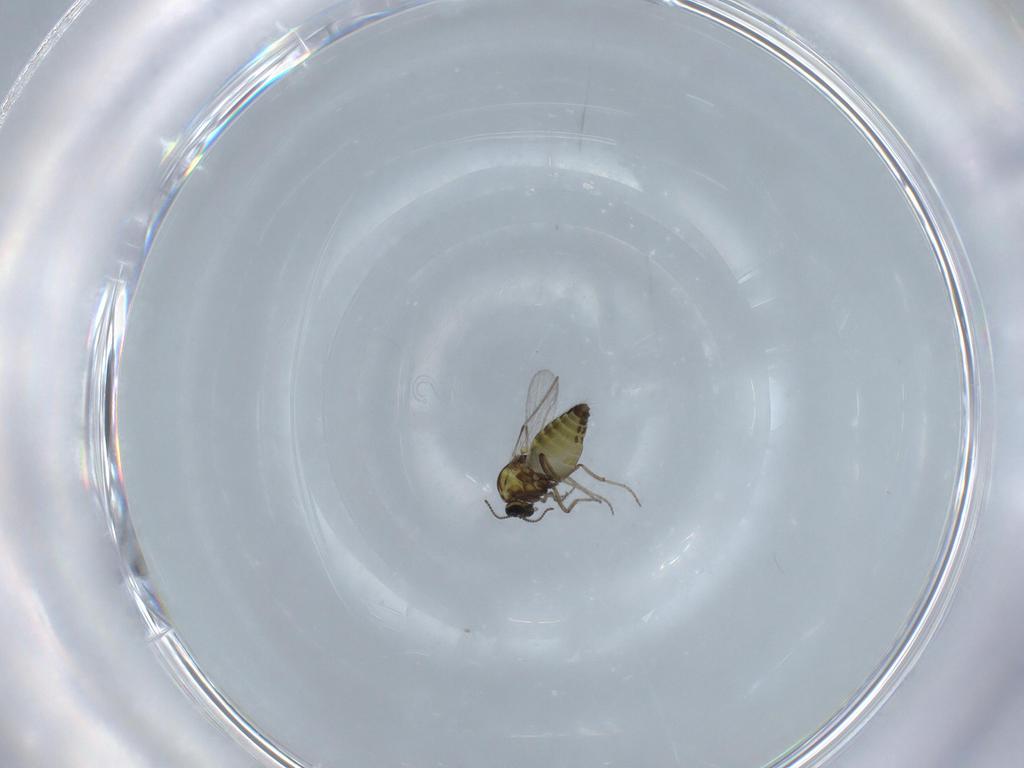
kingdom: Animalia
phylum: Arthropoda
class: Insecta
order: Diptera
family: Ceratopogonidae
